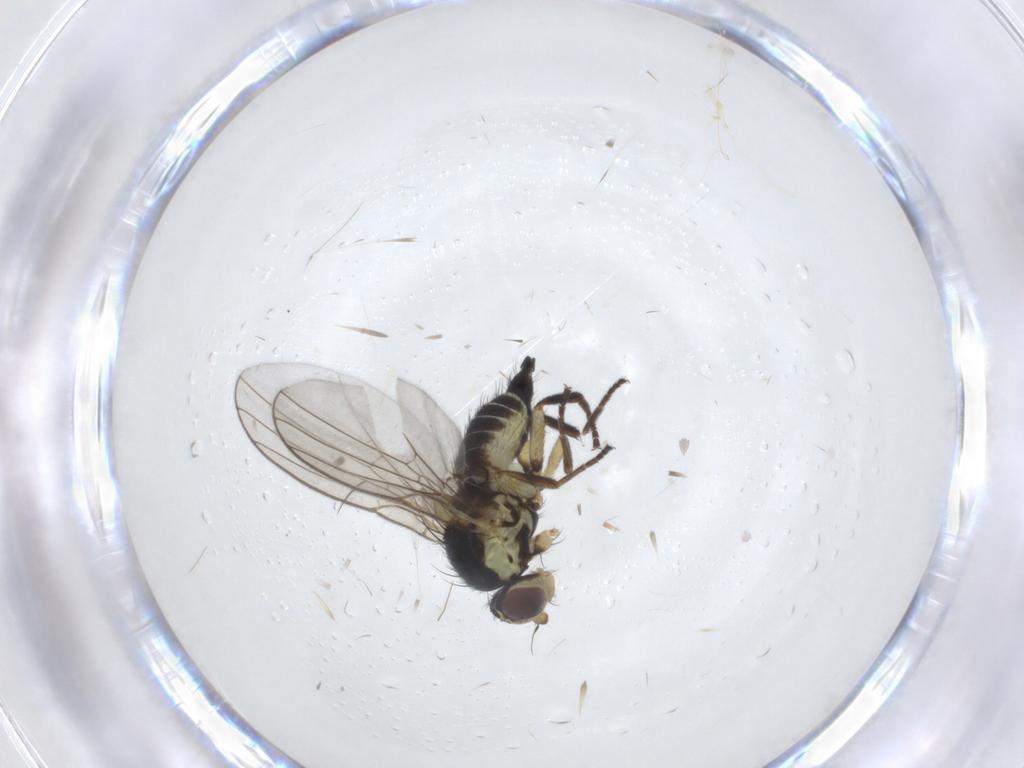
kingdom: Animalia
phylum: Arthropoda
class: Insecta
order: Diptera
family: Agromyzidae
